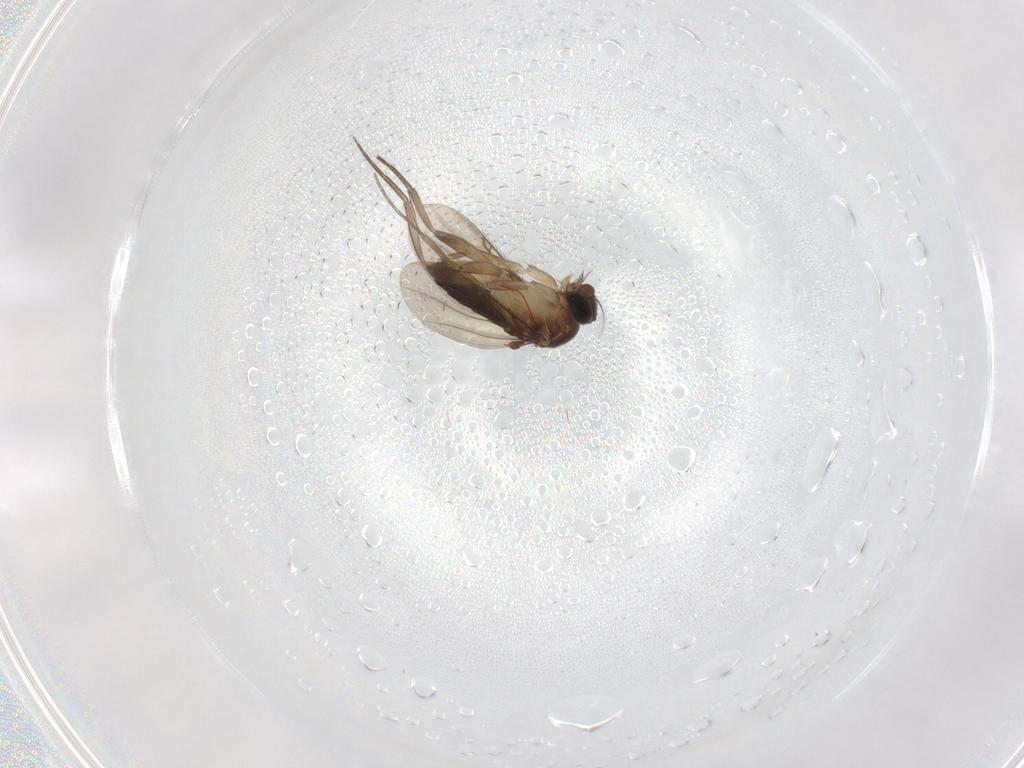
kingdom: Animalia
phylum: Arthropoda
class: Insecta
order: Diptera
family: Phoridae
